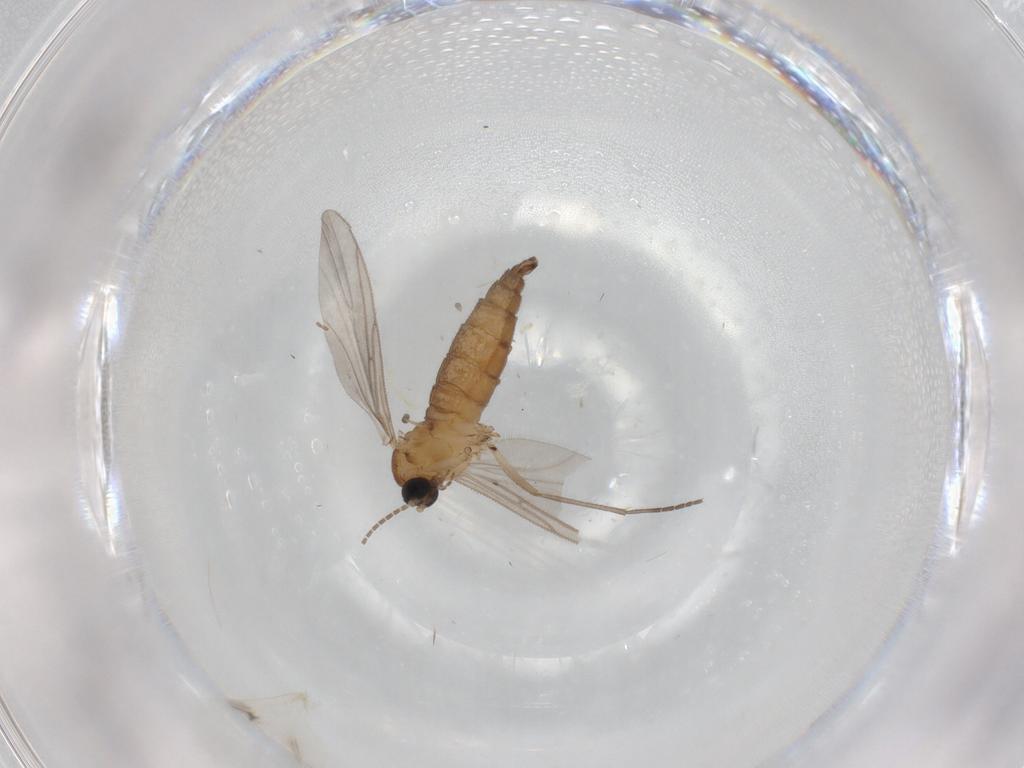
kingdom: Animalia
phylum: Arthropoda
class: Insecta
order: Diptera
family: Sciaridae
